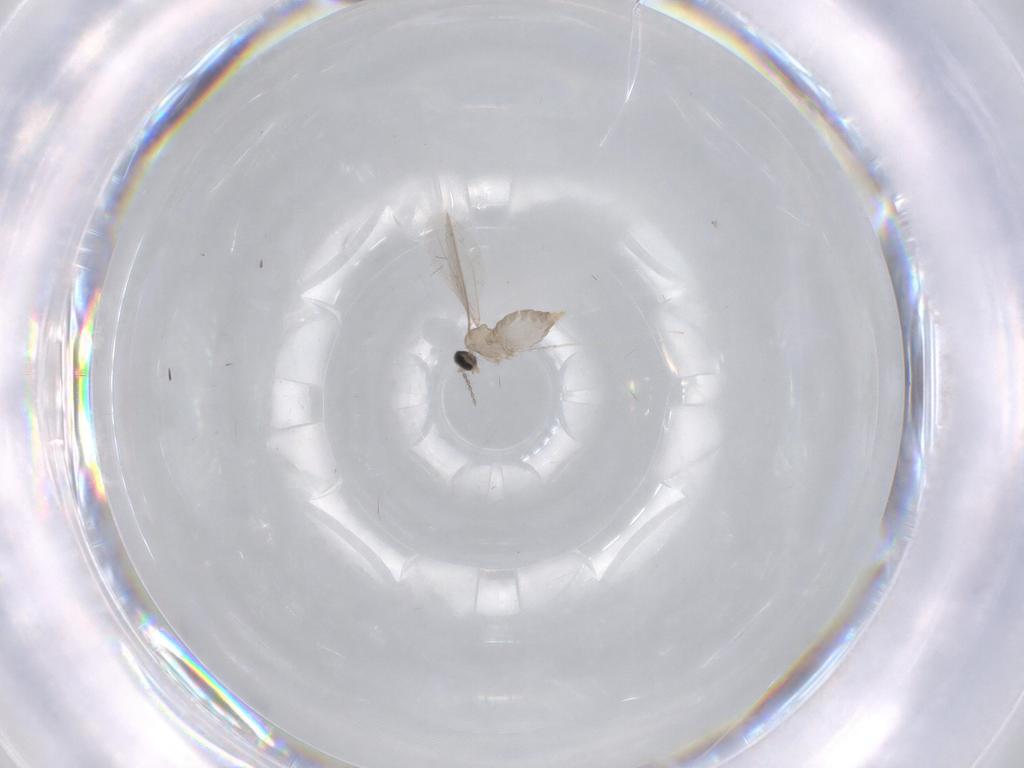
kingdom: Animalia
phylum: Arthropoda
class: Insecta
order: Diptera
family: Cecidomyiidae
